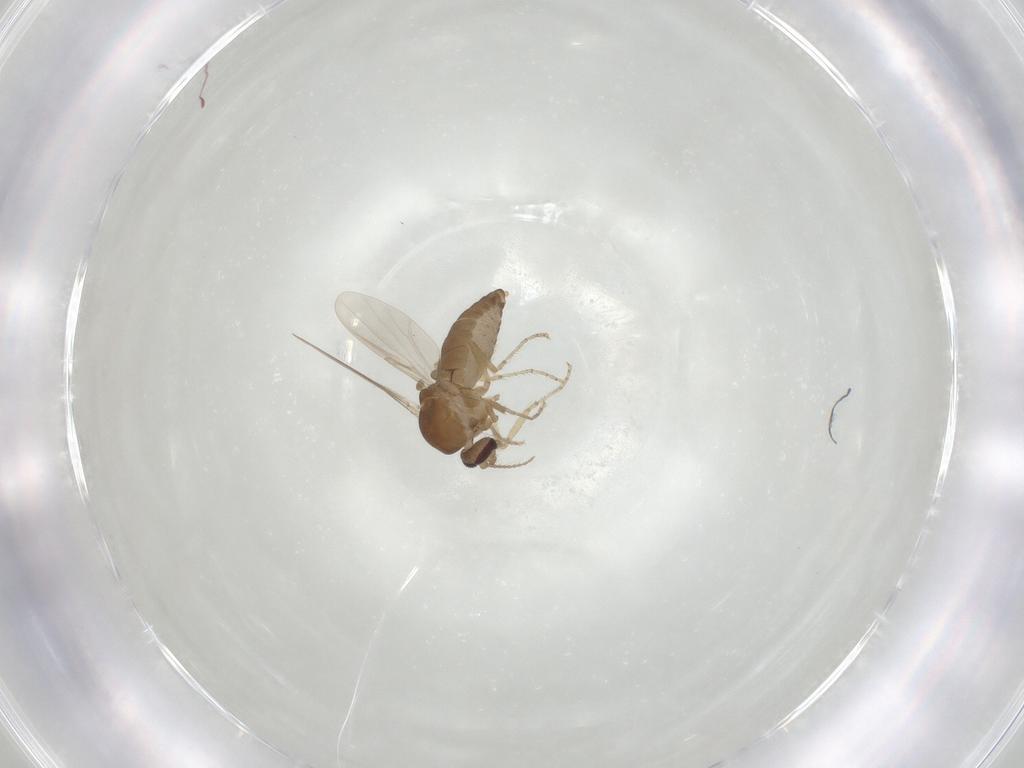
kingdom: Animalia
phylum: Arthropoda
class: Insecta
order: Diptera
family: Ceratopogonidae
